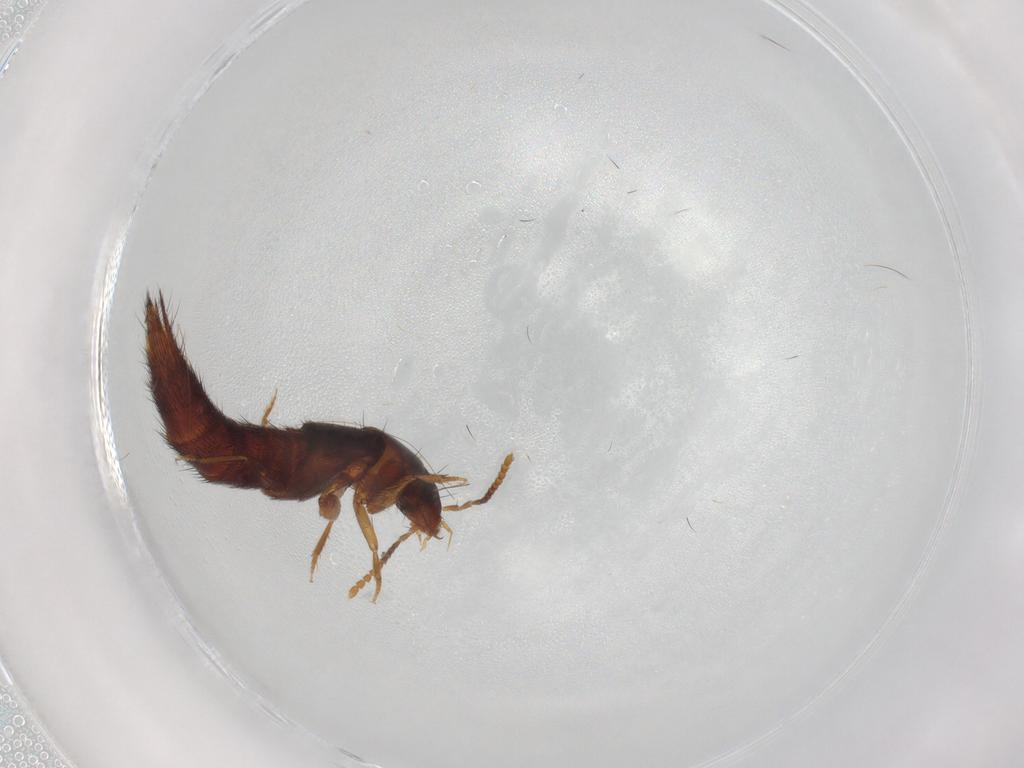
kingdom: Animalia
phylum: Arthropoda
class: Insecta
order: Coleoptera
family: Staphylinidae
